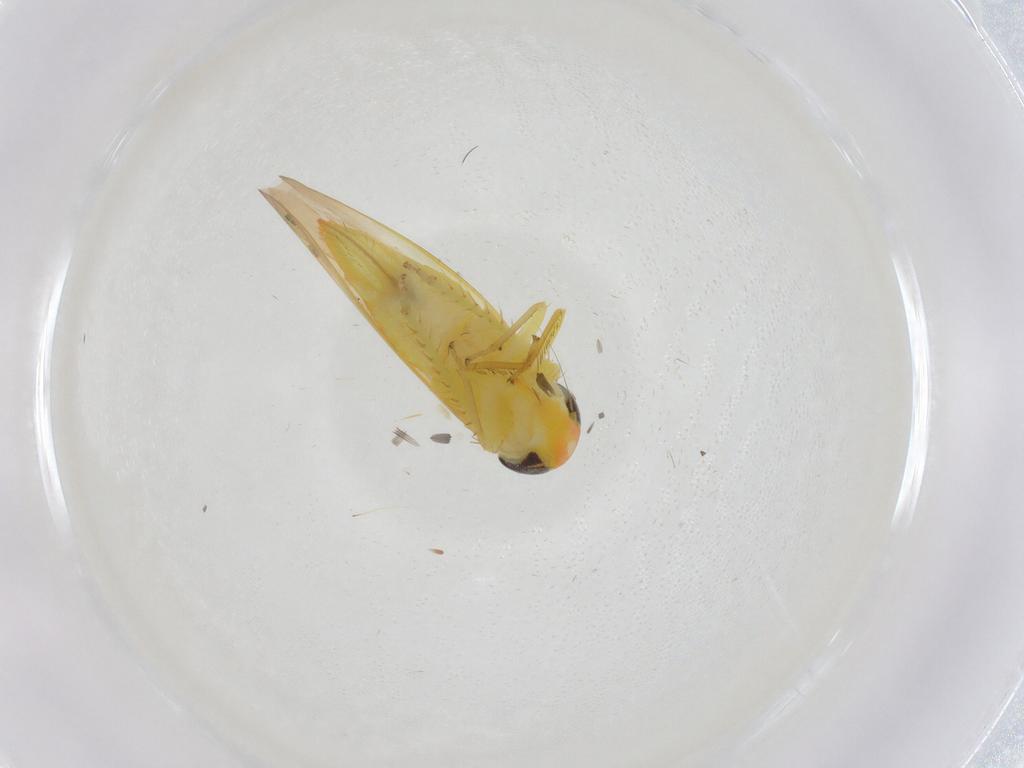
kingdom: Animalia
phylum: Arthropoda
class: Insecta
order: Hemiptera
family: Cicadellidae
